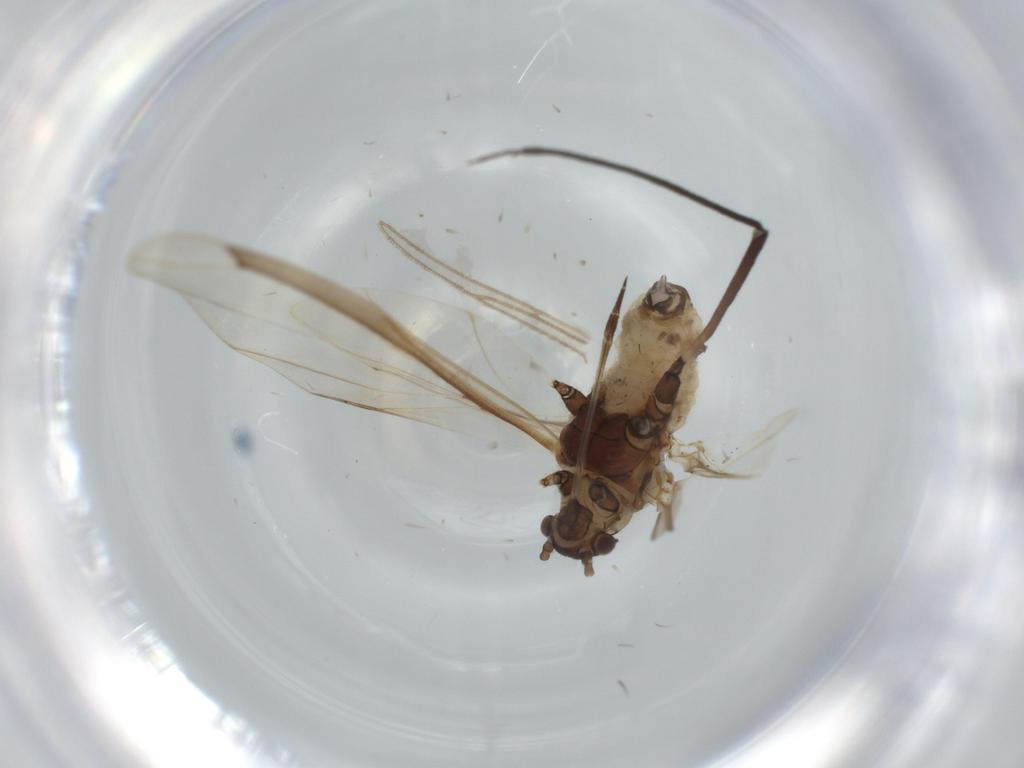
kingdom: Animalia
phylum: Arthropoda
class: Insecta
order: Hemiptera
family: Aphididae
